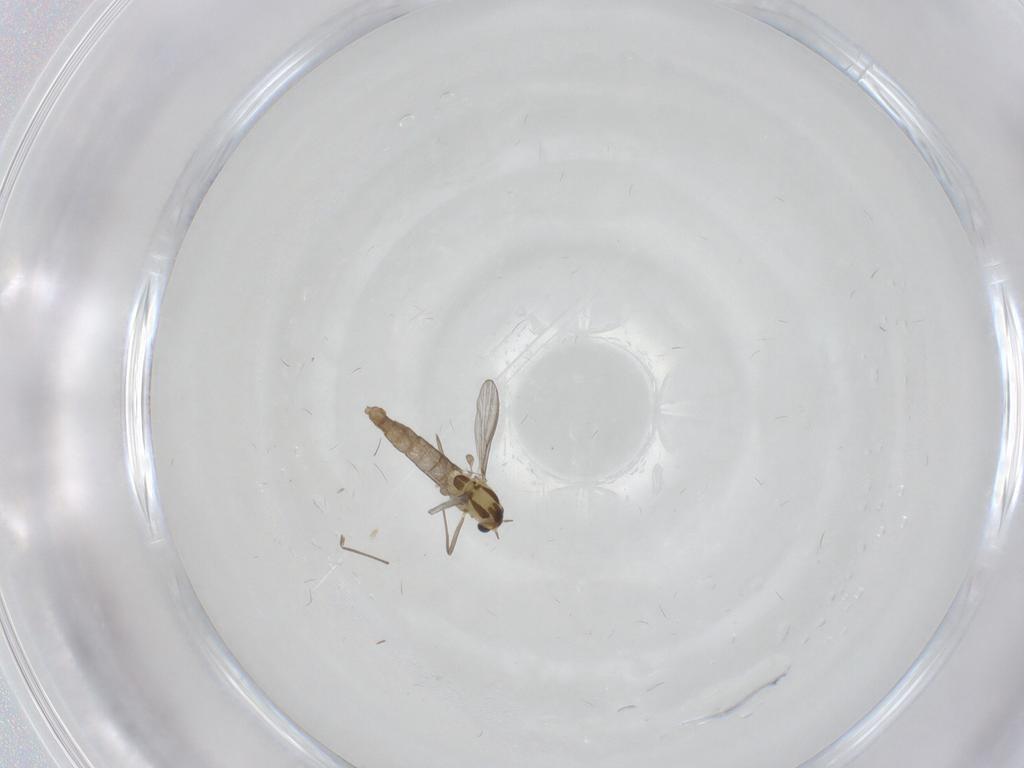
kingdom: Animalia
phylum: Arthropoda
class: Insecta
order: Diptera
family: Chironomidae
